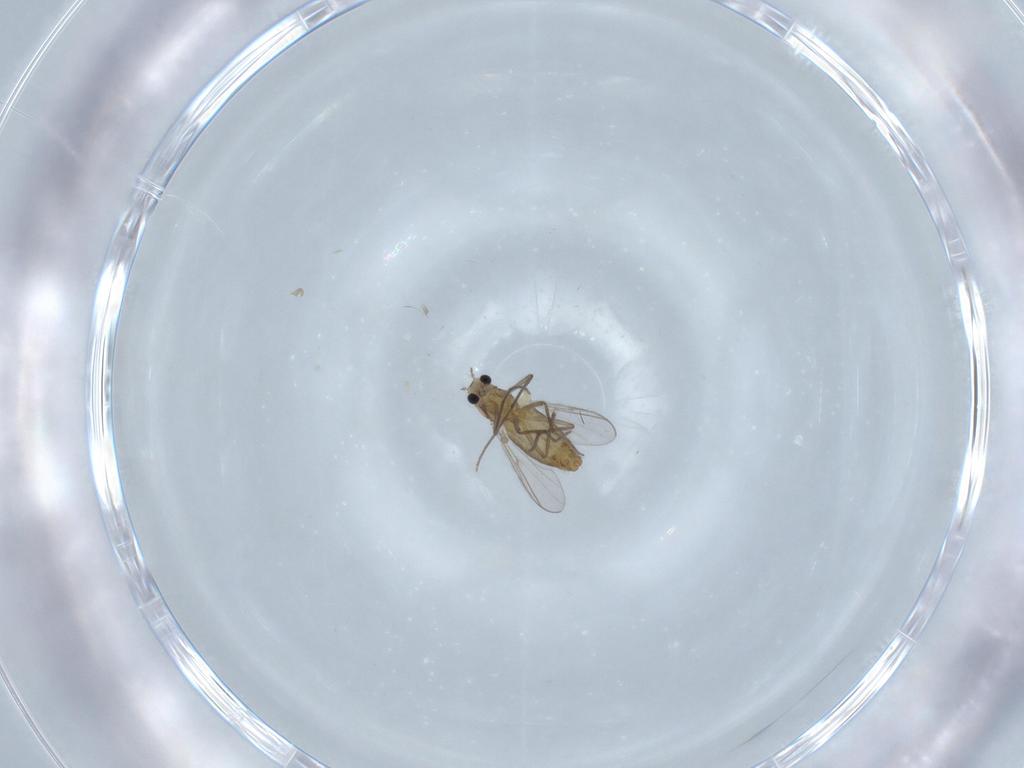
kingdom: Animalia
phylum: Arthropoda
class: Insecta
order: Diptera
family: Chironomidae
